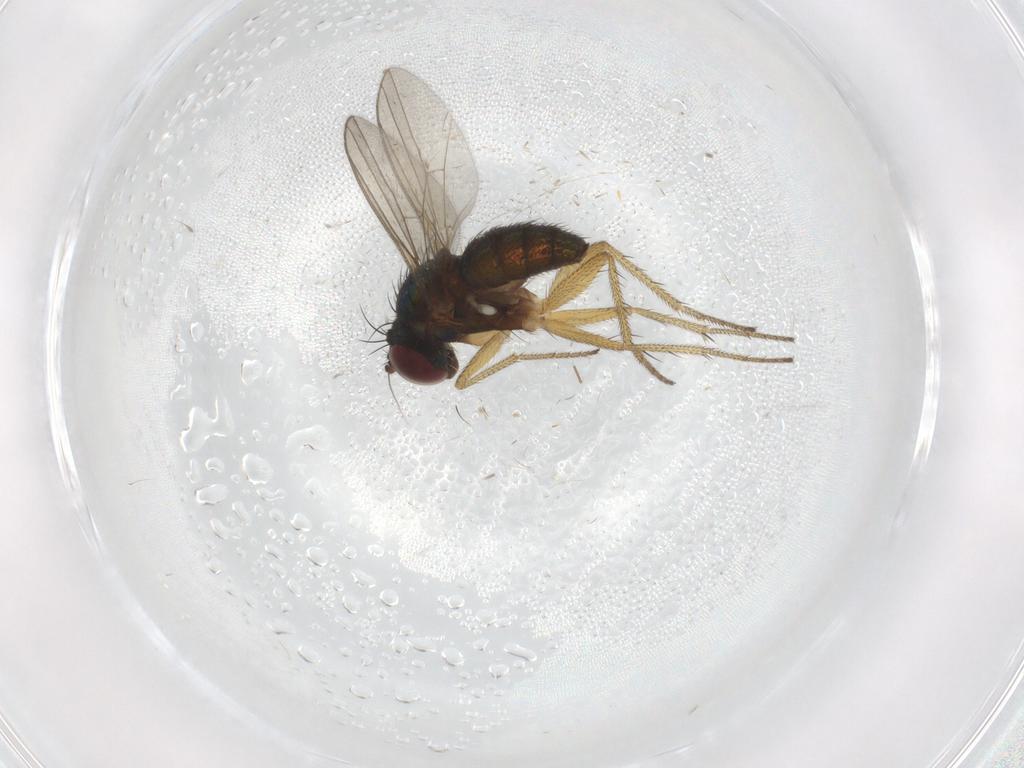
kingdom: Animalia
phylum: Arthropoda
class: Insecta
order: Diptera
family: Dolichopodidae
